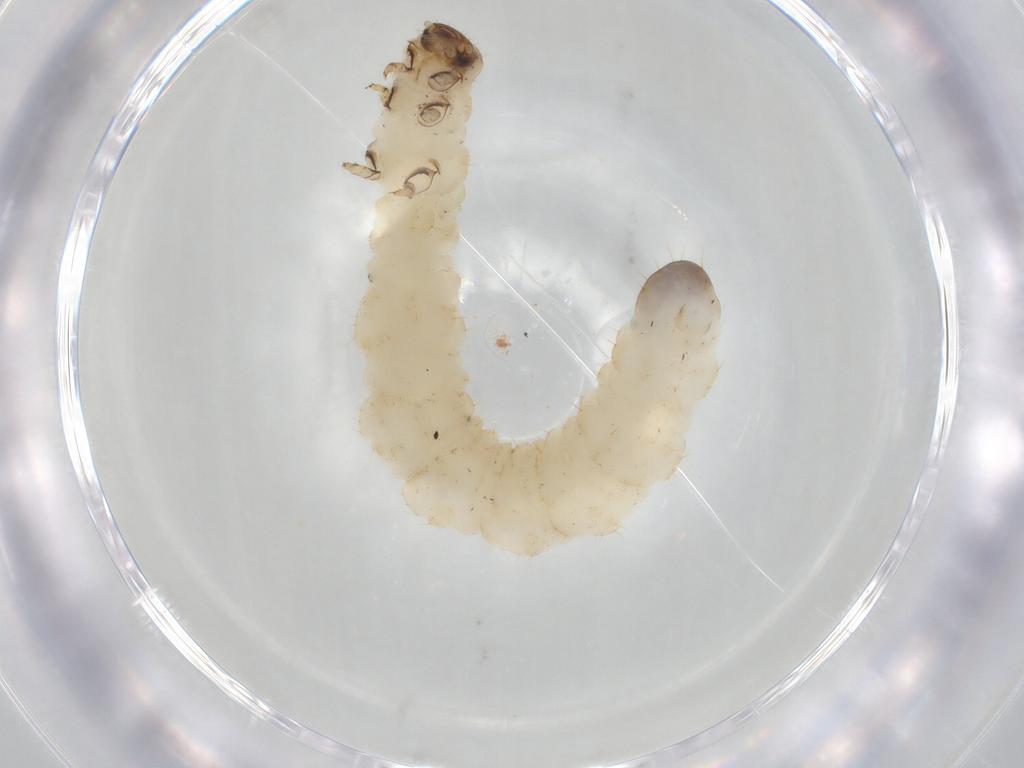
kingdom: Animalia
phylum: Arthropoda
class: Insecta
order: Coleoptera
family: Chrysomelidae
